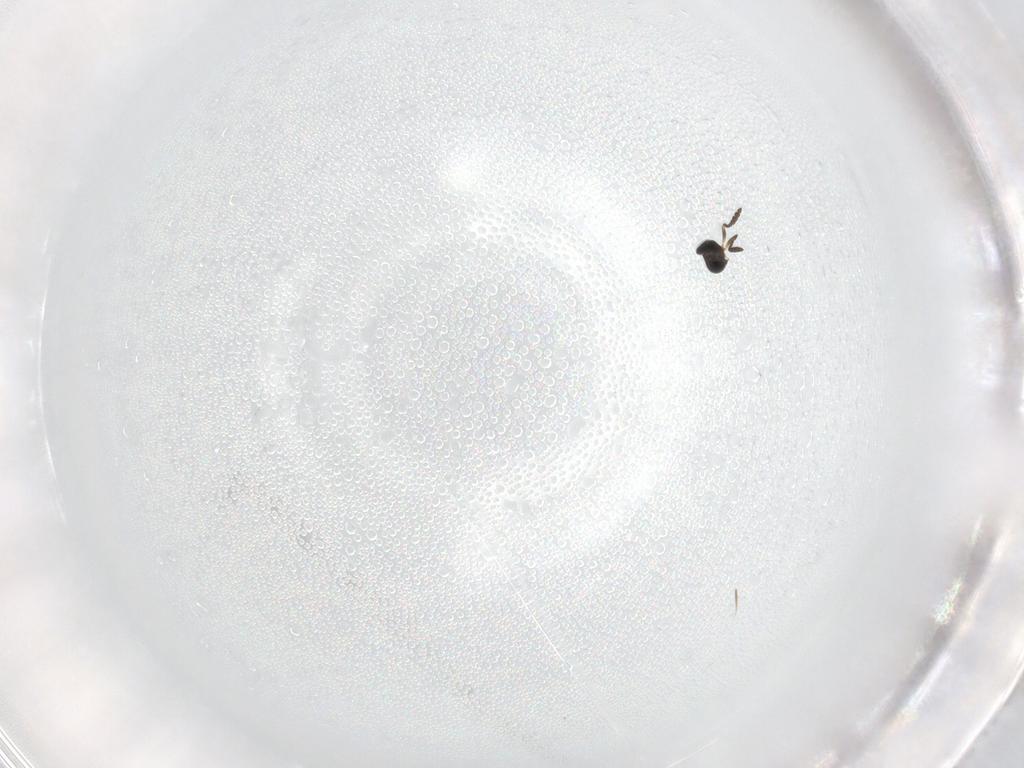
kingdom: Animalia
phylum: Arthropoda
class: Insecta
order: Hymenoptera
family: Scelionidae
